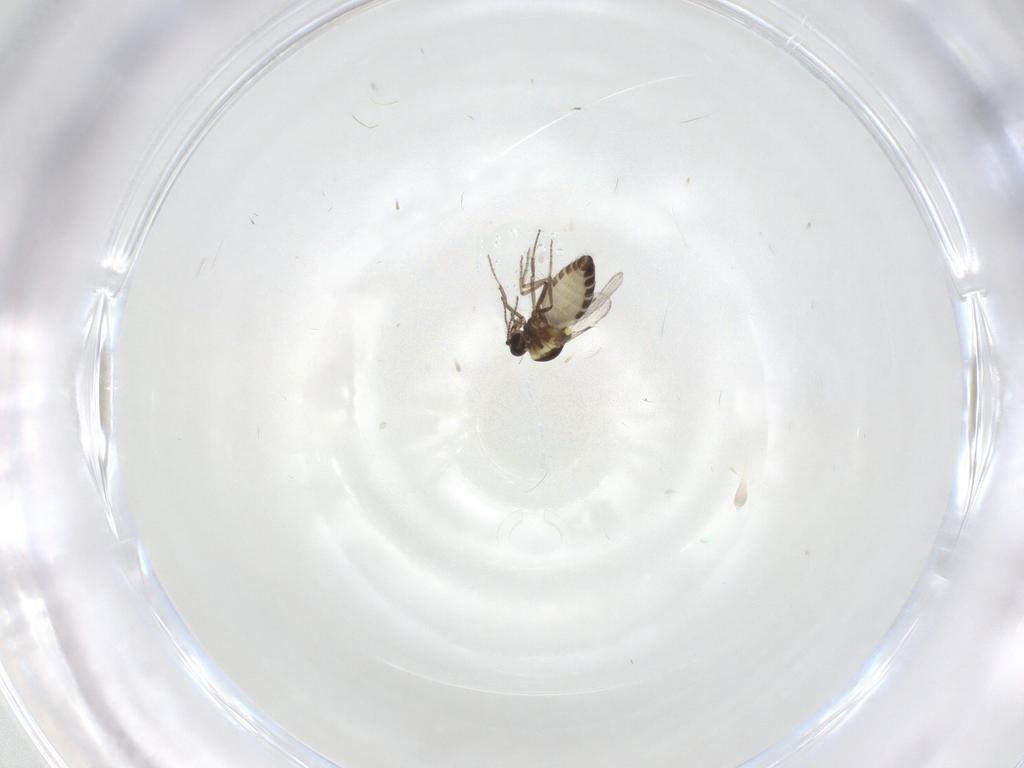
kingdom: Animalia
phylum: Arthropoda
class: Insecta
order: Diptera
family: Ceratopogonidae
